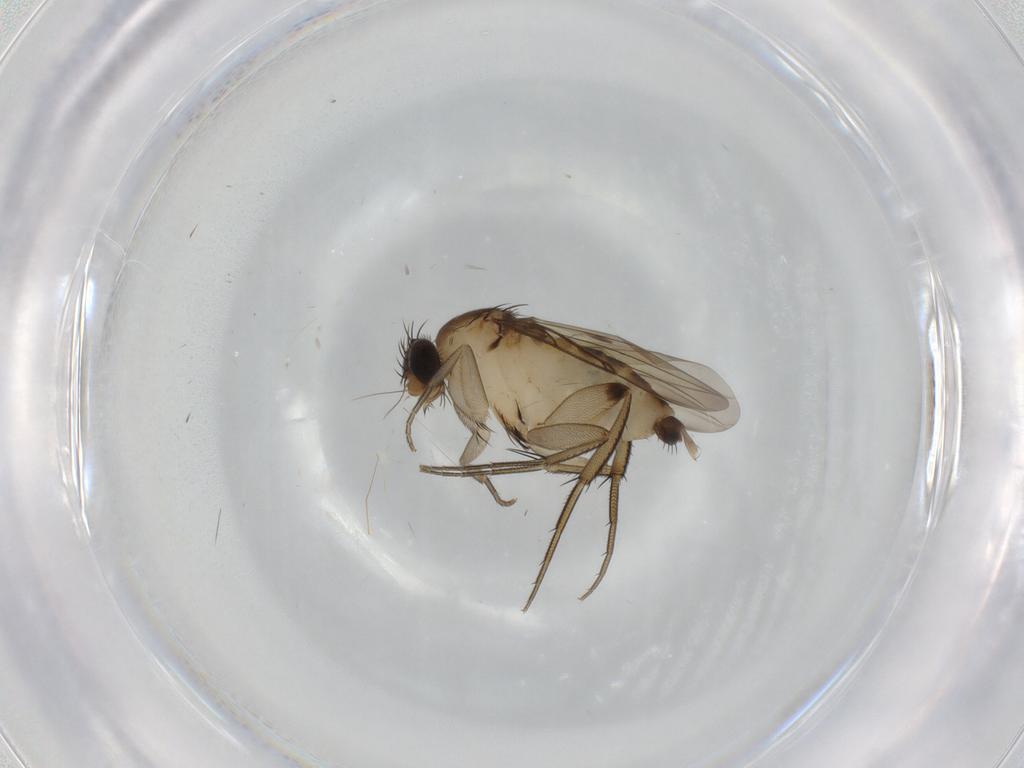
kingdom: Animalia
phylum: Arthropoda
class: Insecta
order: Diptera
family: Phoridae
